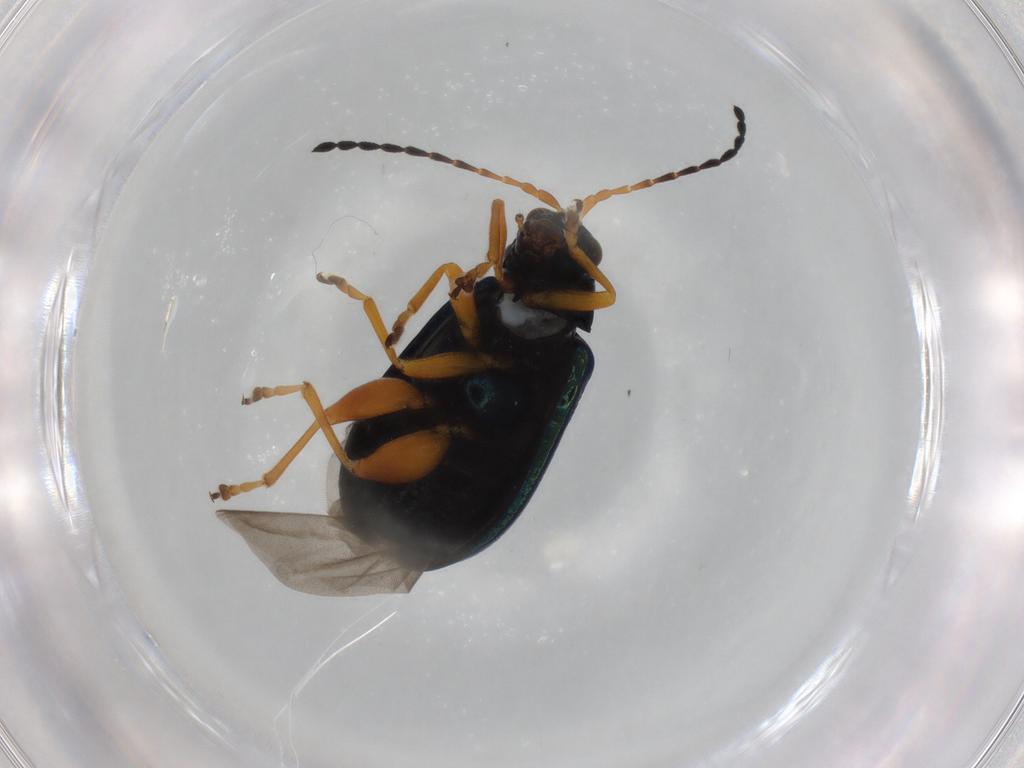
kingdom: Animalia
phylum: Arthropoda
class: Insecta
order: Coleoptera
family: Chrysomelidae
